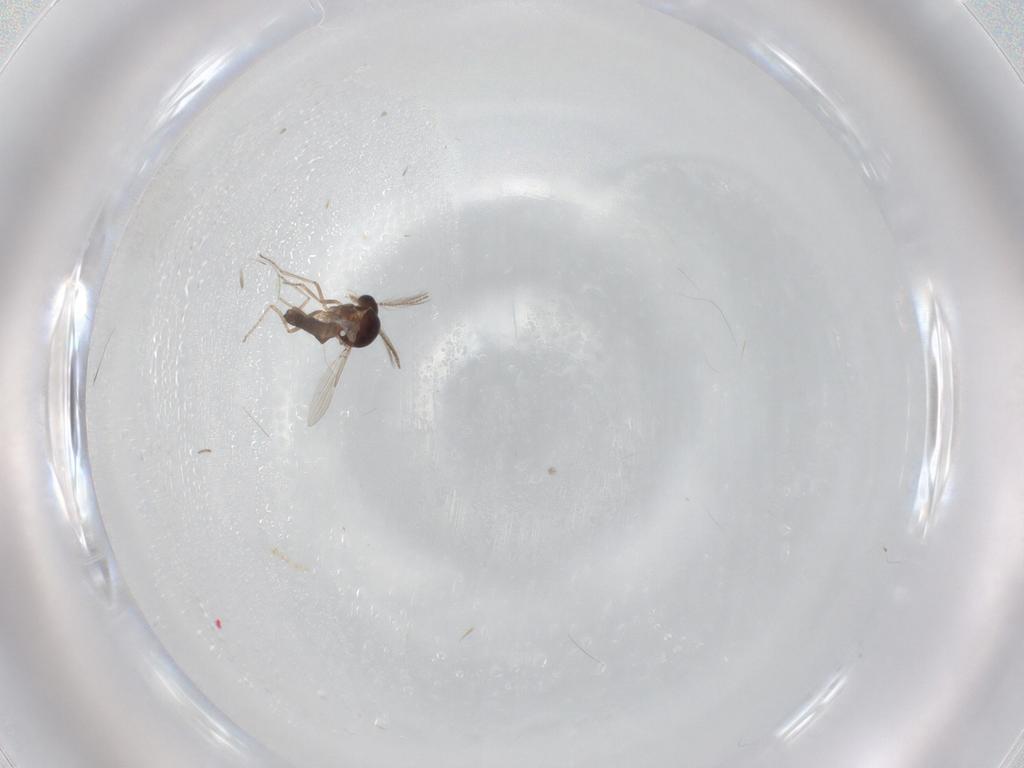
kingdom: Animalia
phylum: Arthropoda
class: Insecta
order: Diptera
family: Ceratopogonidae
